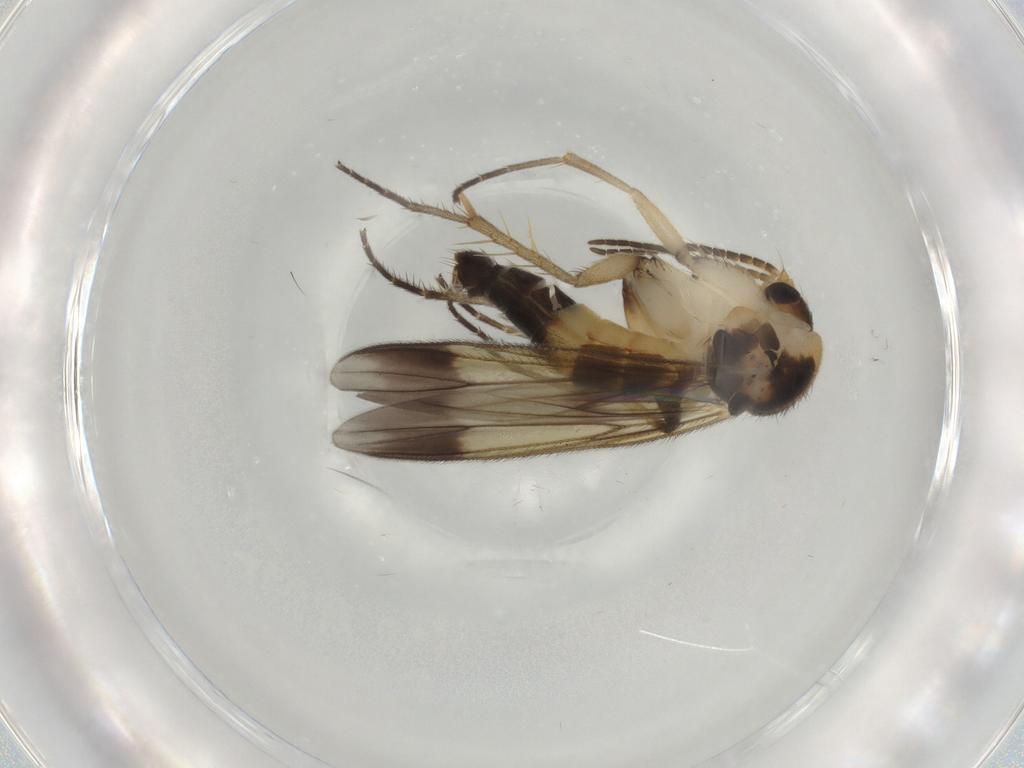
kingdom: Animalia
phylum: Arthropoda
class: Insecta
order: Diptera
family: Mycetophilidae
